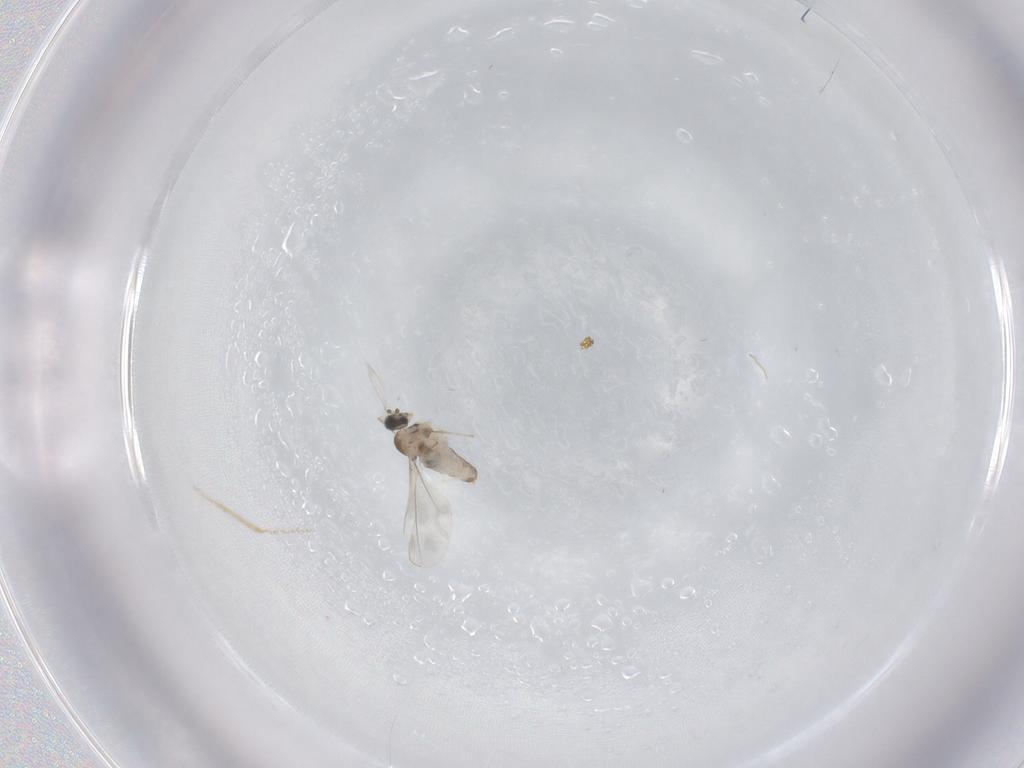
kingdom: Animalia
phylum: Arthropoda
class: Insecta
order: Diptera
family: Cecidomyiidae
